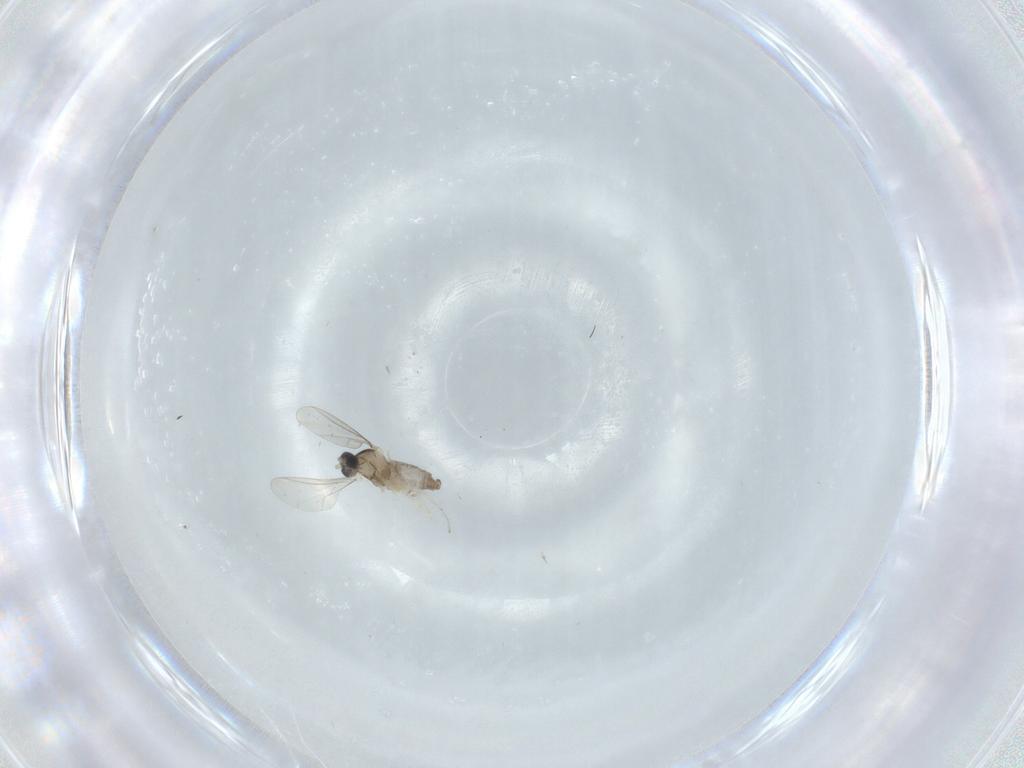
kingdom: Animalia
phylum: Arthropoda
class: Insecta
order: Diptera
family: Cecidomyiidae
